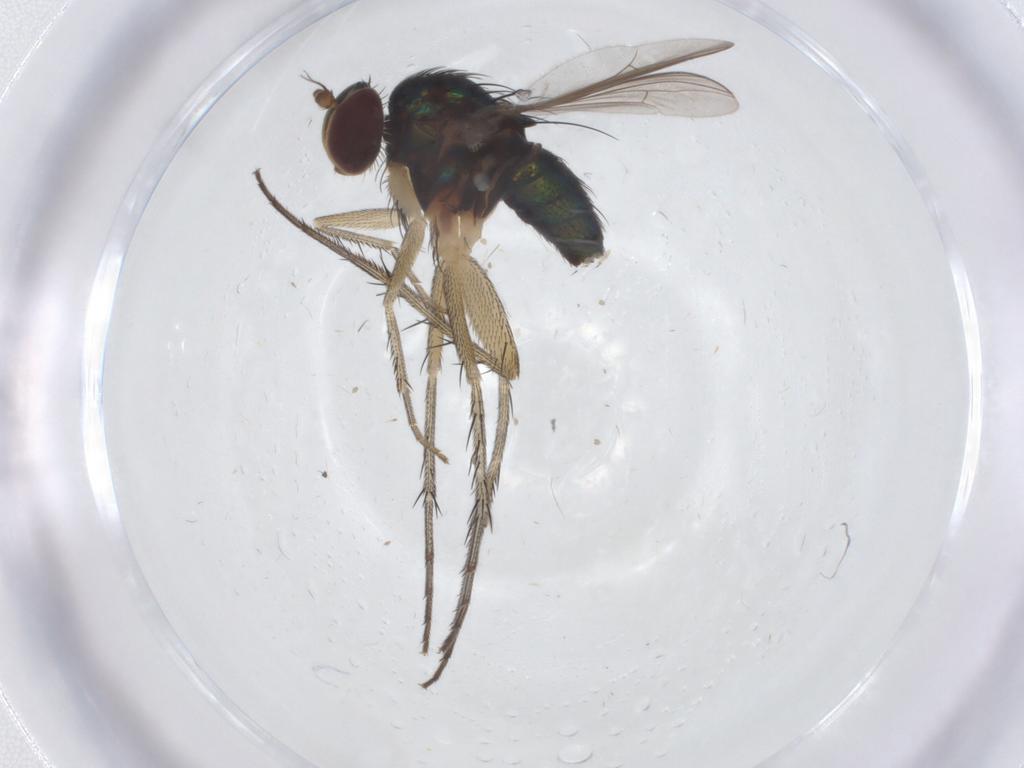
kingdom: Animalia
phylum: Arthropoda
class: Insecta
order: Diptera
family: Dolichopodidae
